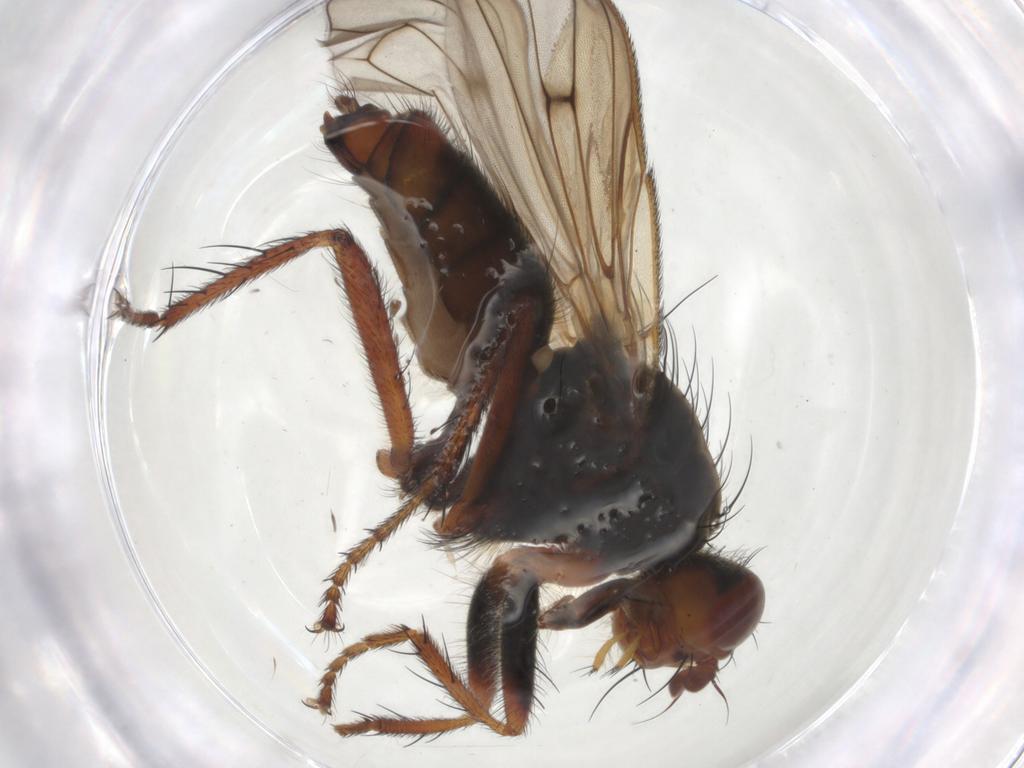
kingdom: Animalia
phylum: Arthropoda
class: Insecta
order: Diptera
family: Scathophagidae
